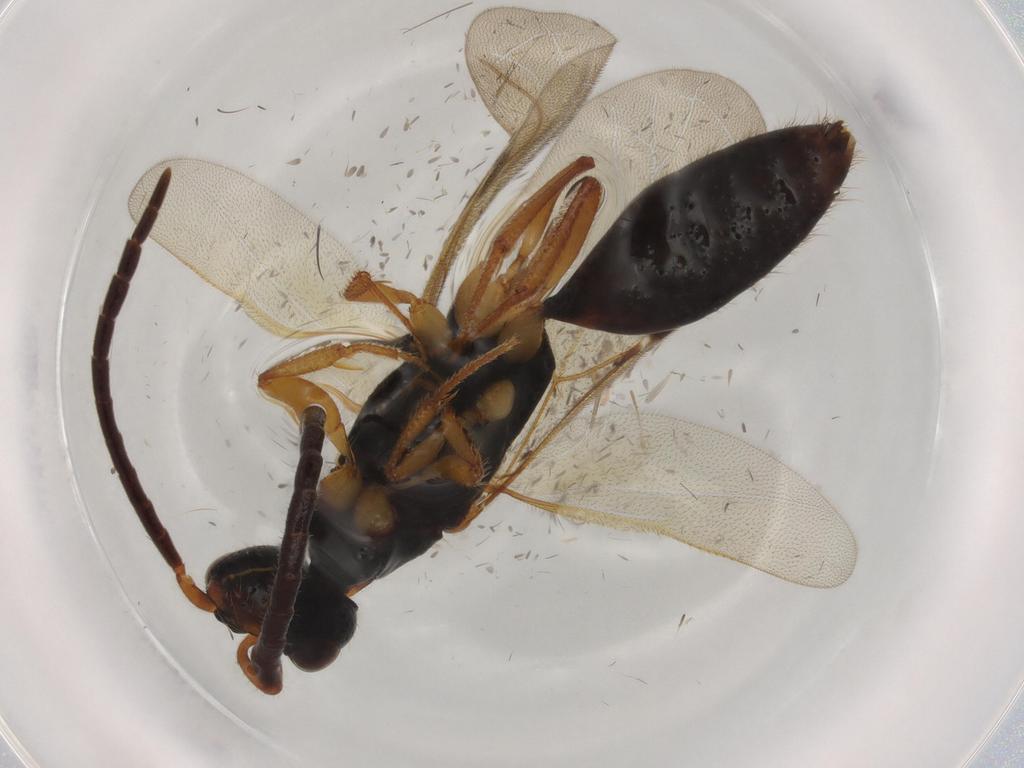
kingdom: Animalia
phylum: Arthropoda
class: Insecta
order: Hymenoptera
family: Bethylidae
